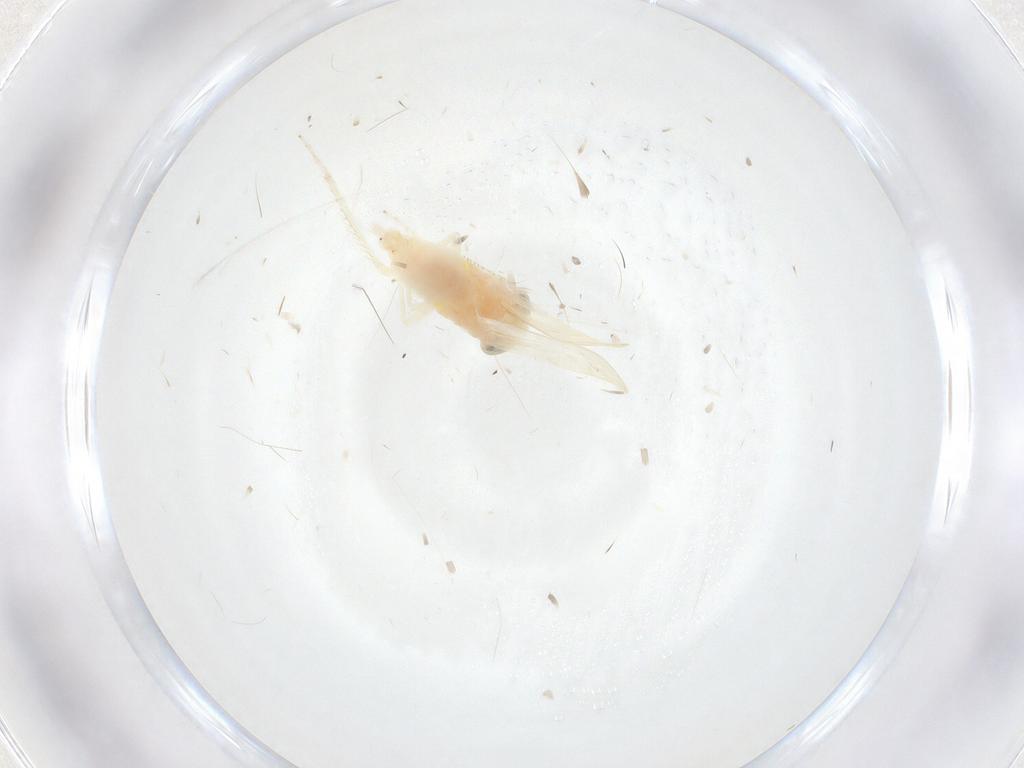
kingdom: Animalia
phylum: Arthropoda
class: Insecta
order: Hemiptera
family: Cicadellidae
